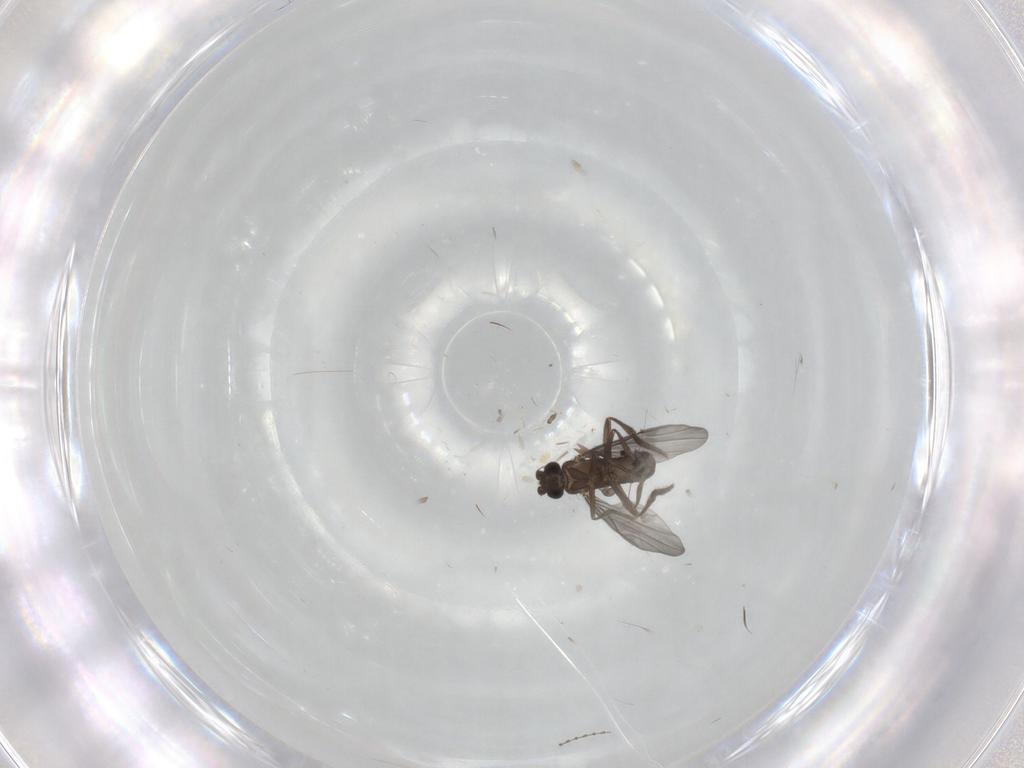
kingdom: Animalia
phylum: Arthropoda
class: Insecta
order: Diptera
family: Phoridae
